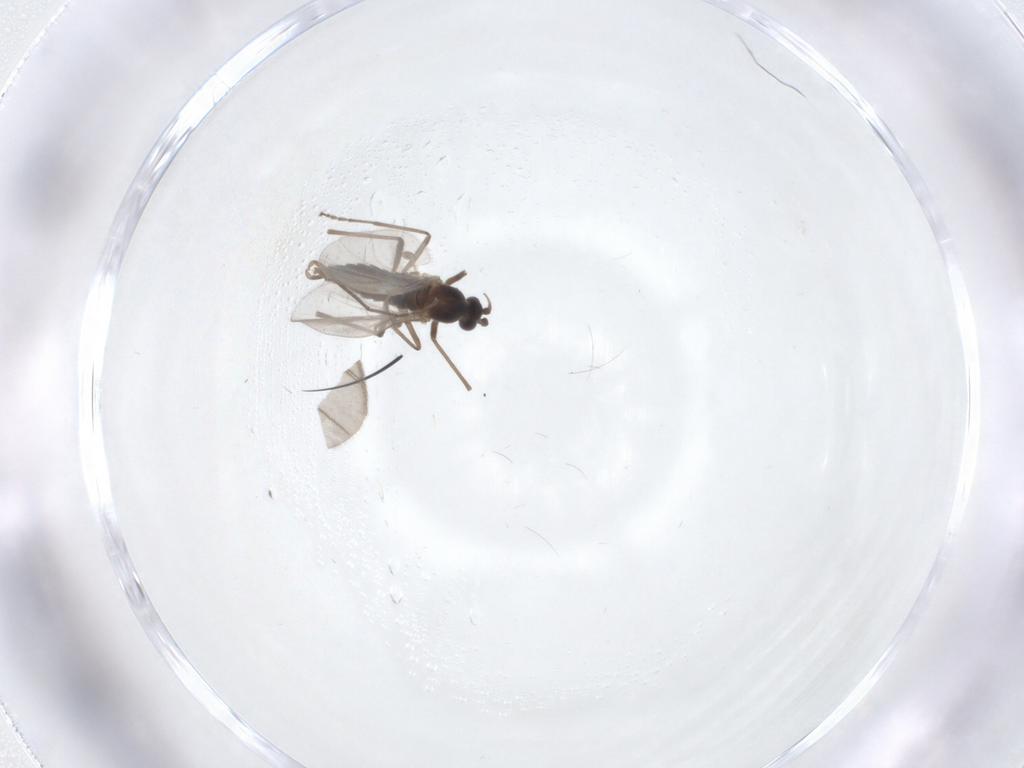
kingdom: Animalia
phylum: Arthropoda
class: Insecta
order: Diptera
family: Cecidomyiidae
